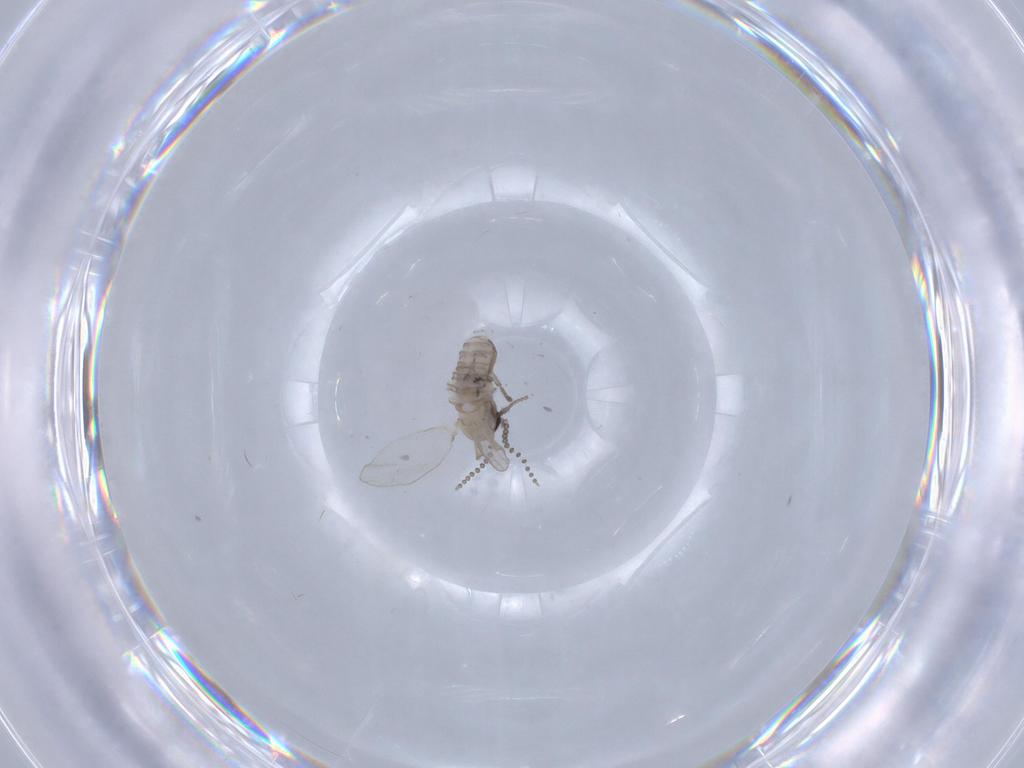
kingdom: Animalia
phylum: Arthropoda
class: Insecta
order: Diptera
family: Psychodidae
